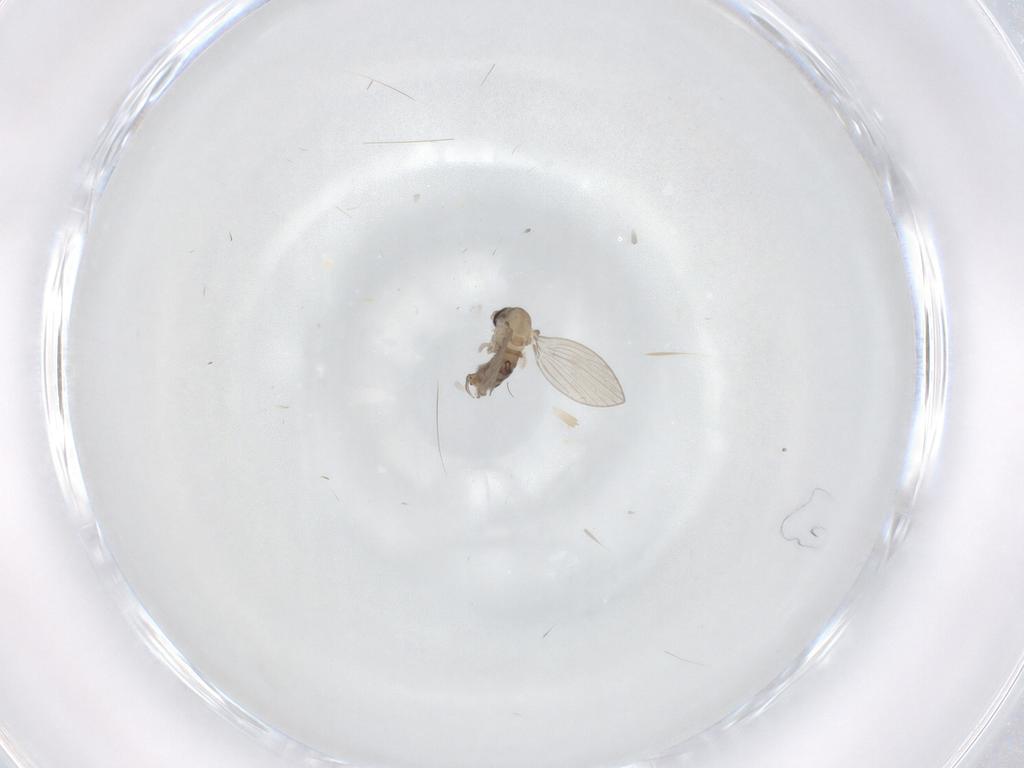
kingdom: Animalia
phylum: Arthropoda
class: Insecta
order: Diptera
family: Psychodidae
